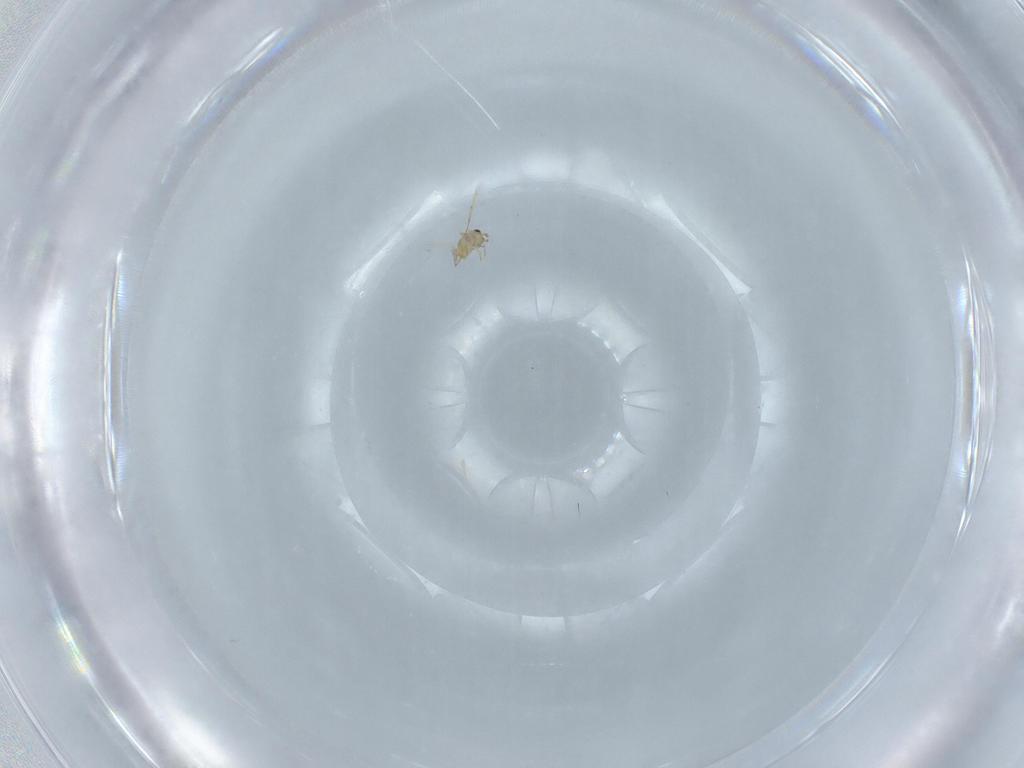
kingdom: Animalia
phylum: Arthropoda
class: Insecta
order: Hymenoptera
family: Trichogrammatidae
